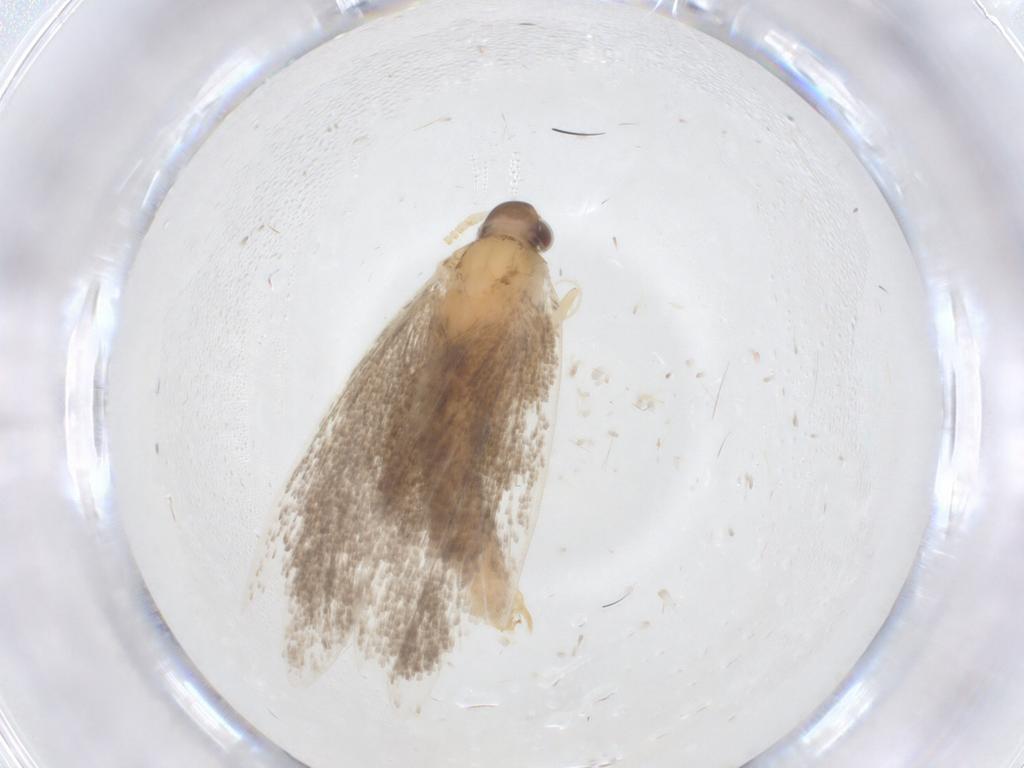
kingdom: Animalia
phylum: Arthropoda
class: Insecta
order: Lepidoptera
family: Lecithoceridae
